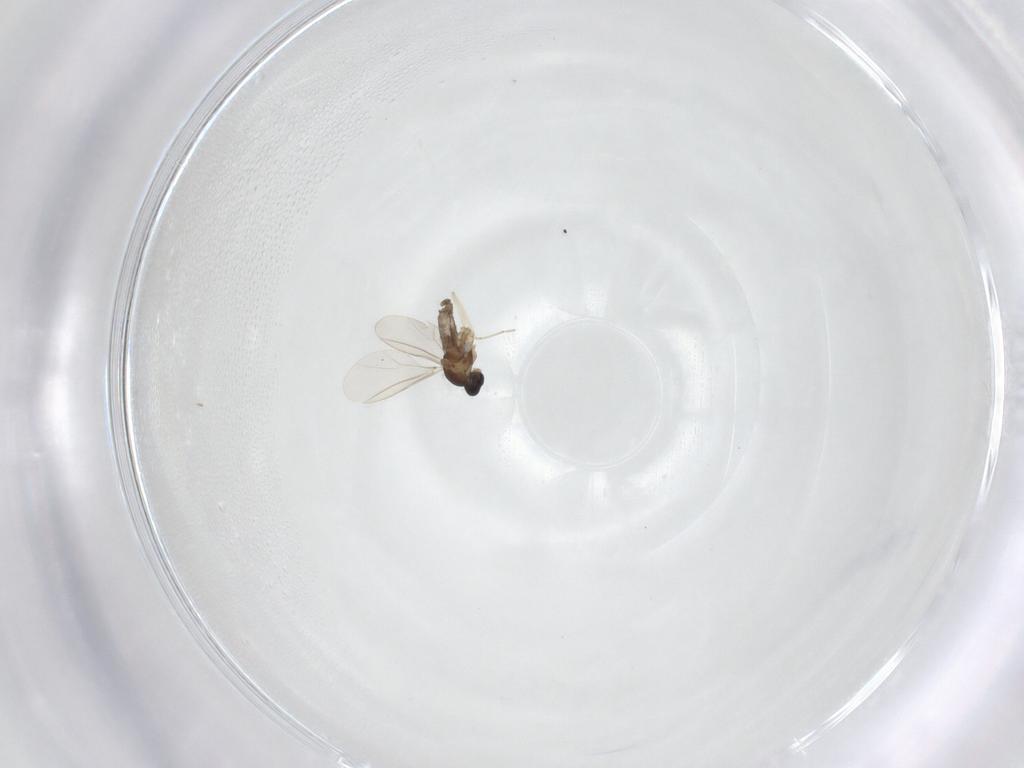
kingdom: Animalia
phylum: Arthropoda
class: Insecta
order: Diptera
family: Cecidomyiidae
